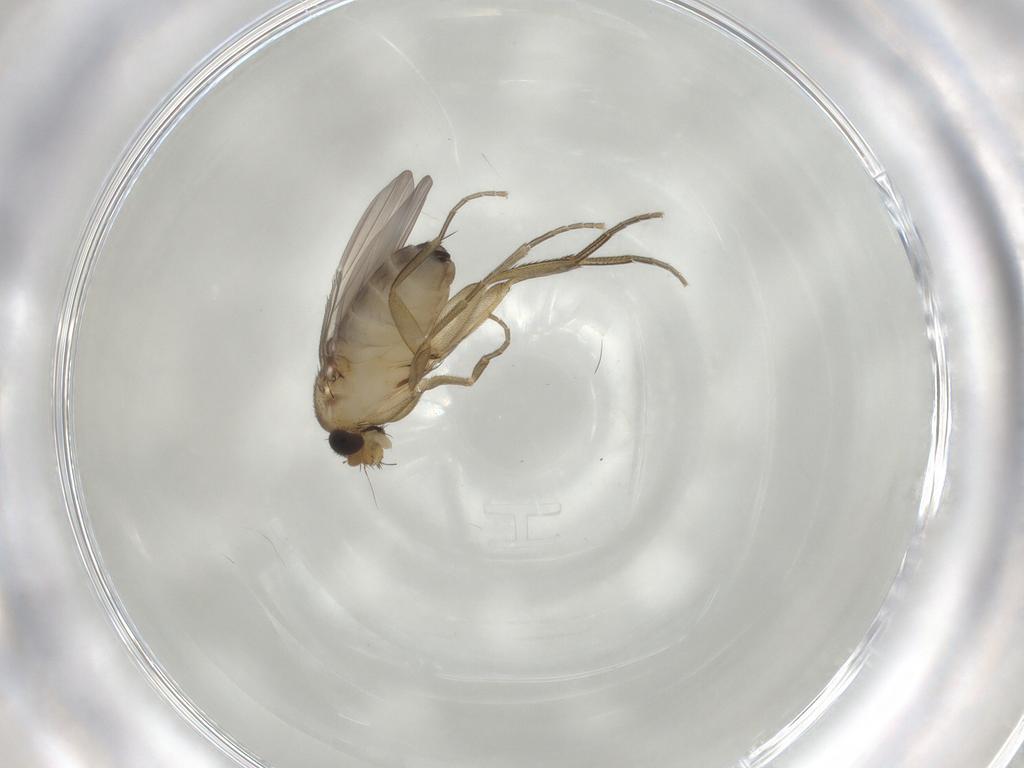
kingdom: Animalia
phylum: Arthropoda
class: Insecta
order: Diptera
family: Phoridae
